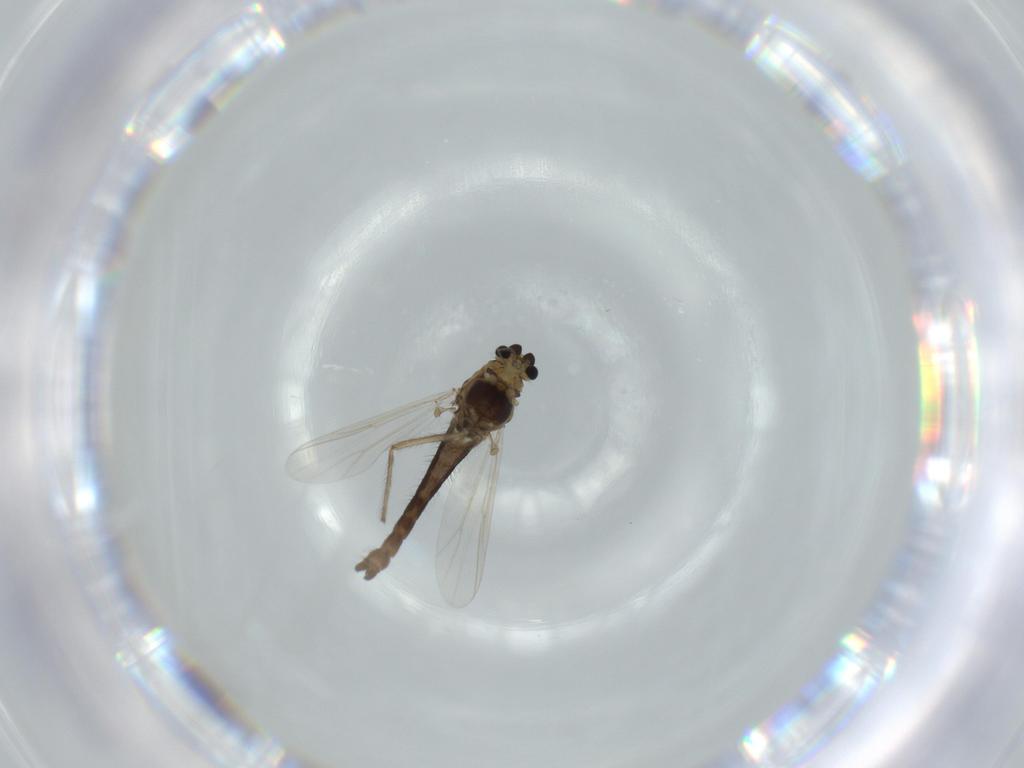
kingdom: Animalia
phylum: Arthropoda
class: Insecta
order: Diptera
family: Chironomidae
